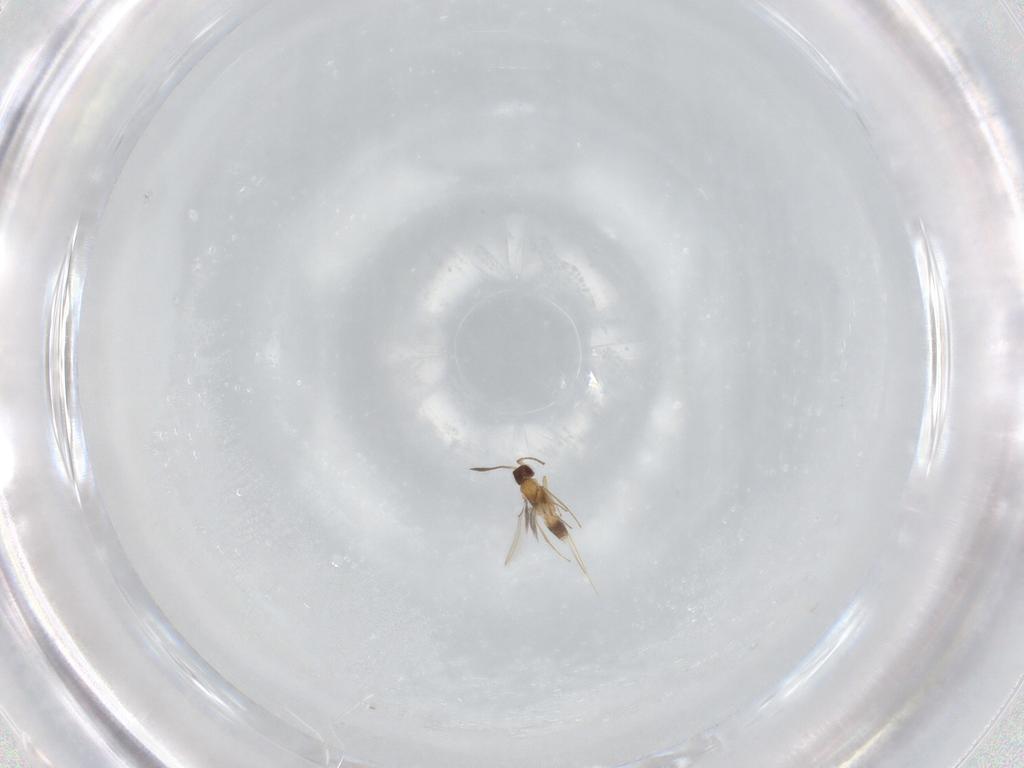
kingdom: Animalia
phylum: Arthropoda
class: Insecta
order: Hymenoptera
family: Mymaridae
